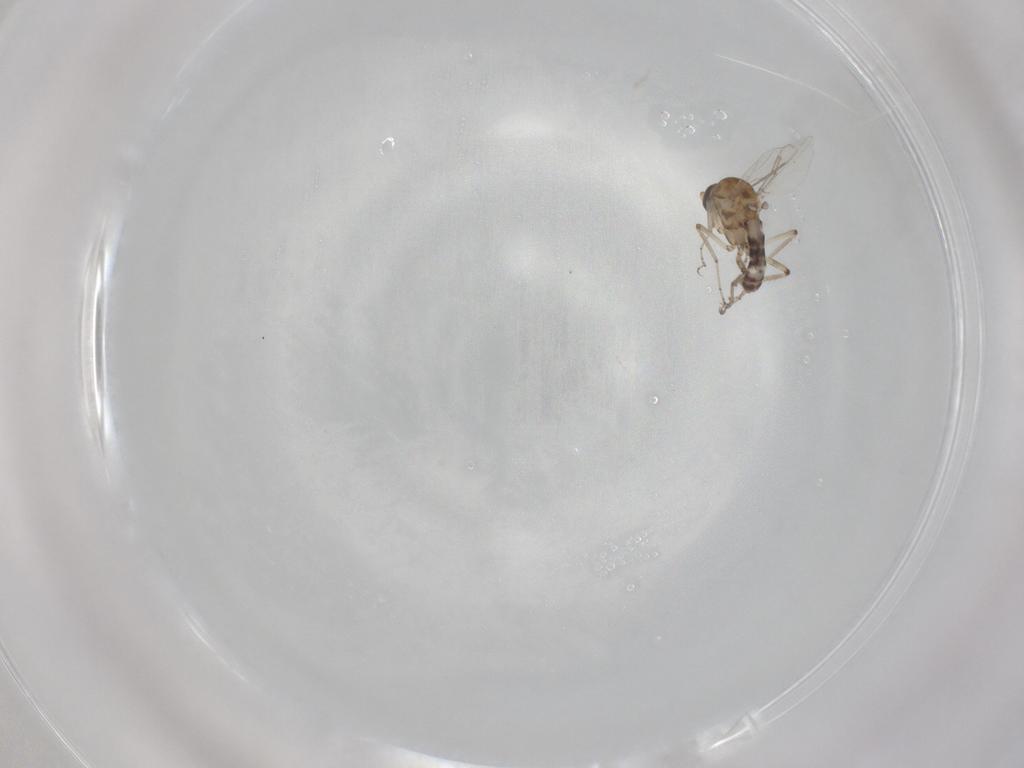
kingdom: Animalia
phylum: Arthropoda
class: Insecta
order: Diptera
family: Ceratopogonidae
